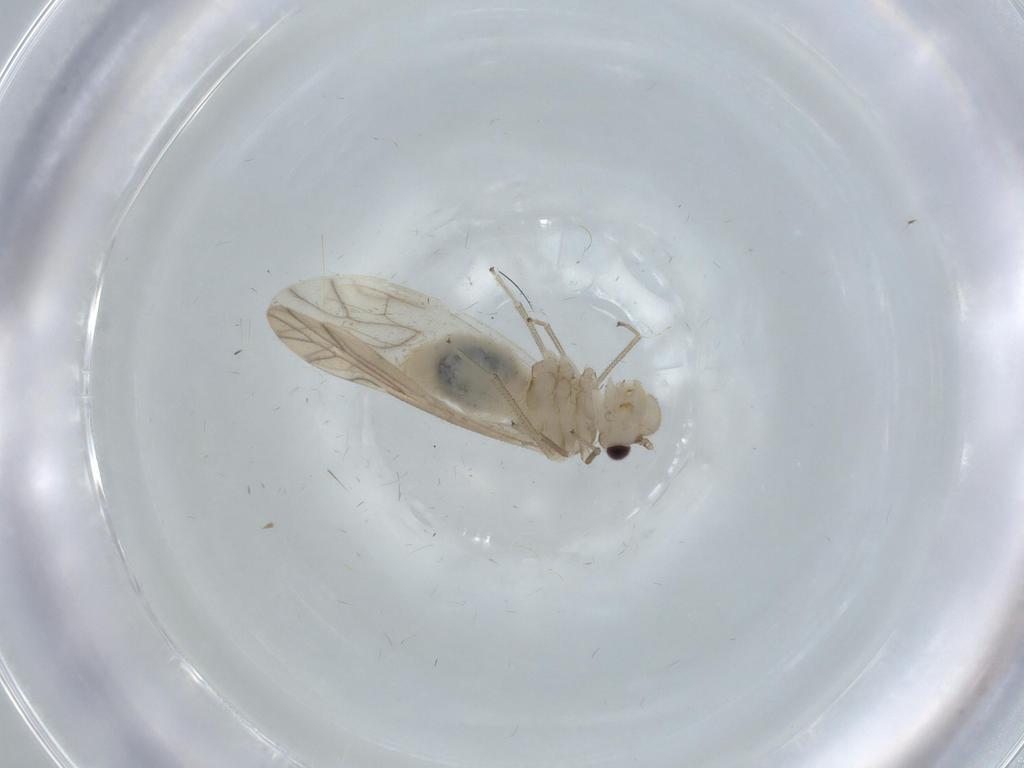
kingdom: Animalia
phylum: Arthropoda
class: Insecta
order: Psocodea
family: Caeciliusidae
